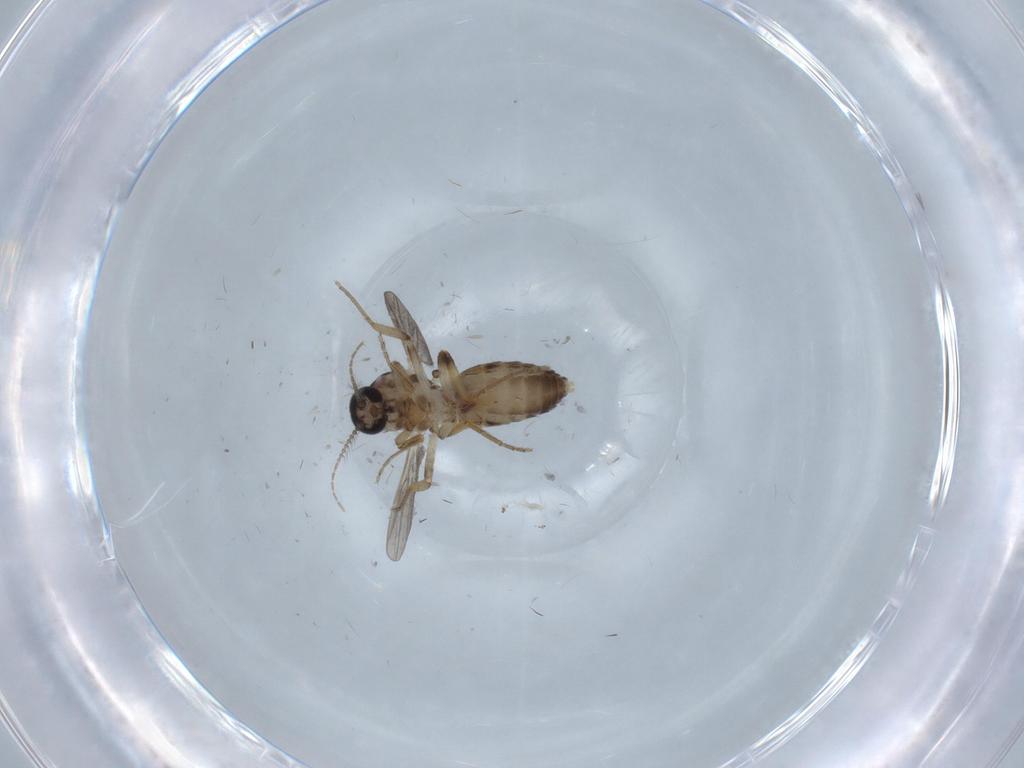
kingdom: Animalia
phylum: Arthropoda
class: Insecta
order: Diptera
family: Ceratopogonidae
